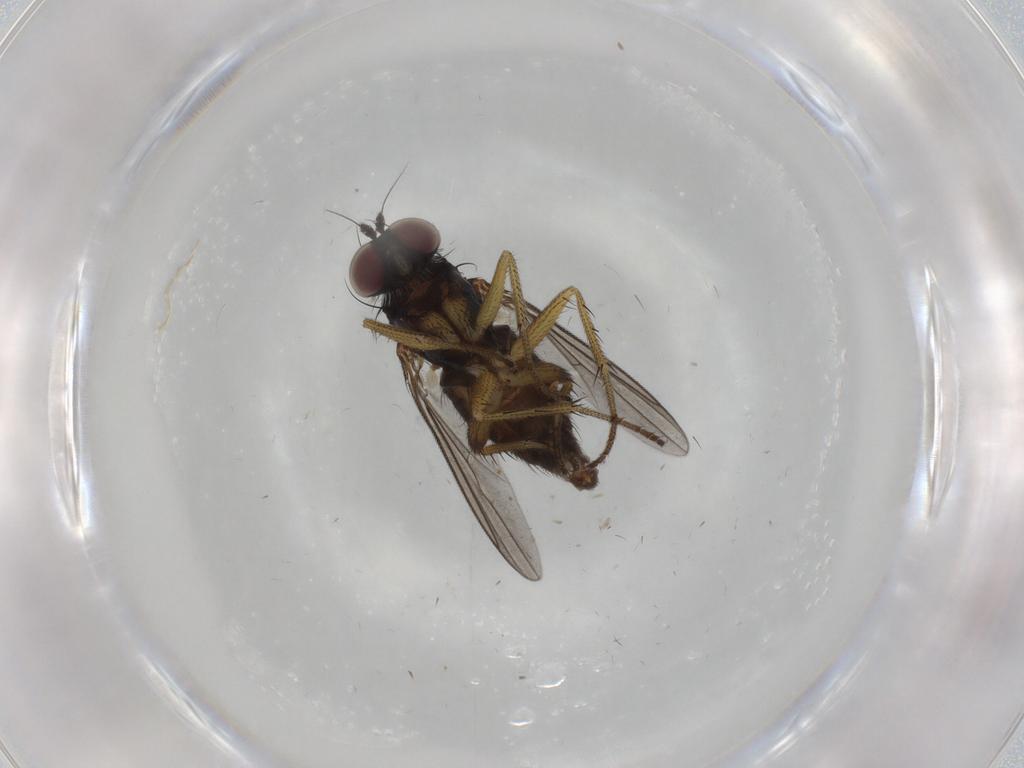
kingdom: Animalia
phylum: Arthropoda
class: Insecta
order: Diptera
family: Dolichopodidae
